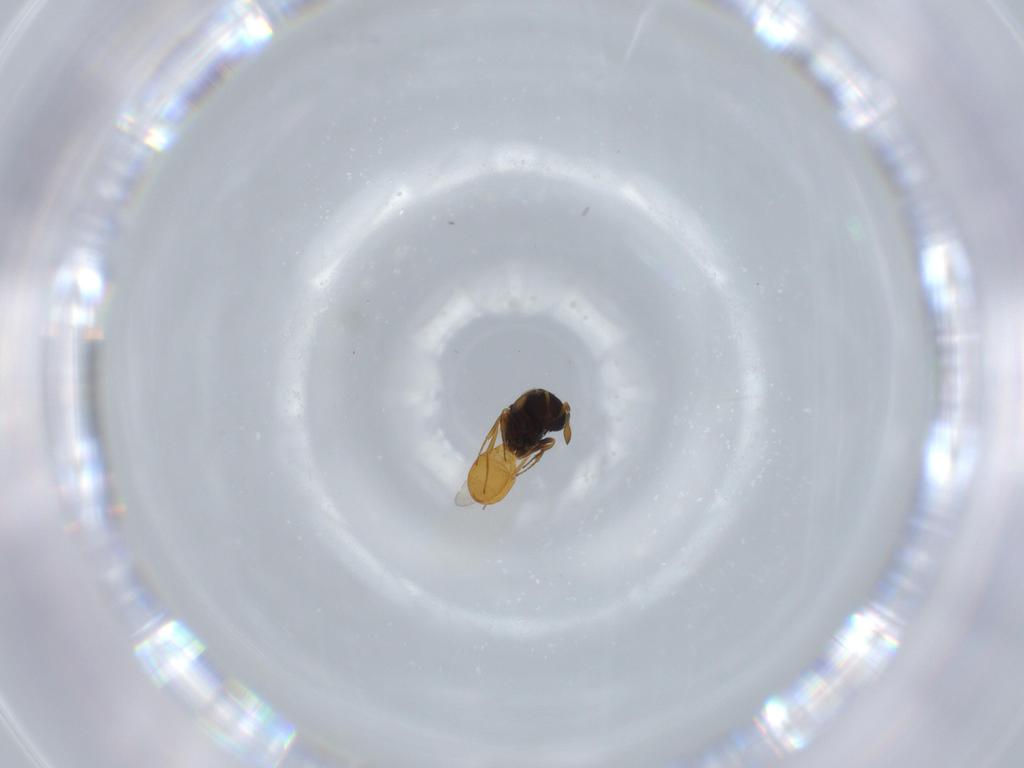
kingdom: Animalia
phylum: Arthropoda
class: Insecta
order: Hymenoptera
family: Scelionidae
